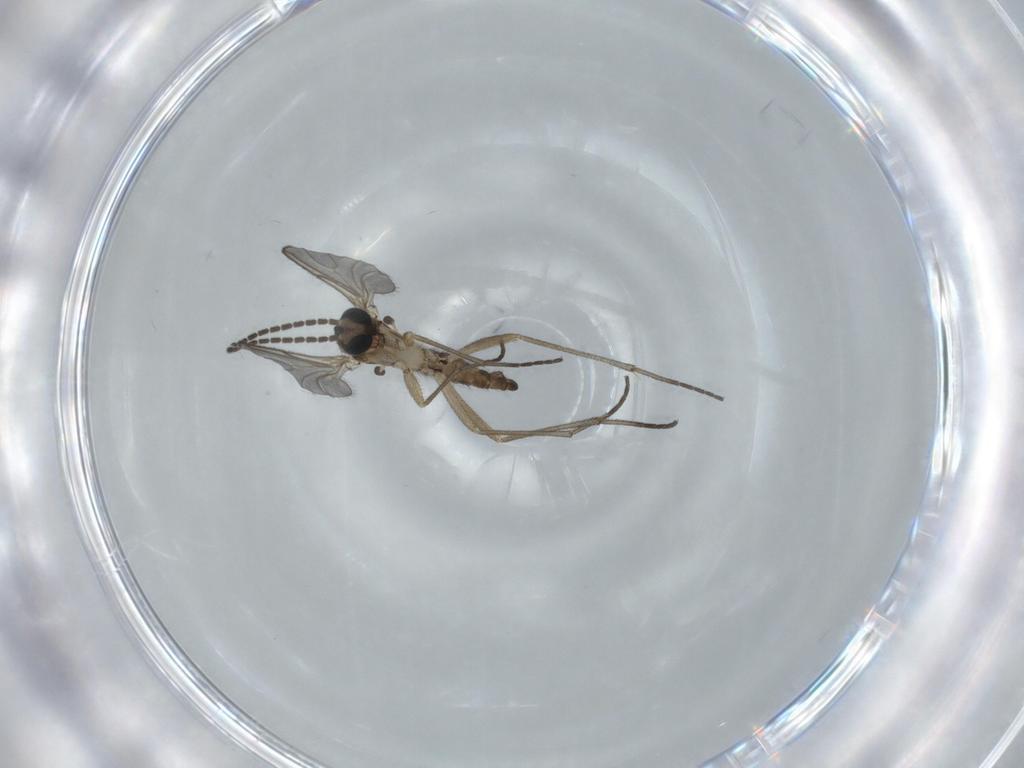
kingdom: Animalia
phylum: Arthropoda
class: Insecta
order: Diptera
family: Sciaridae
